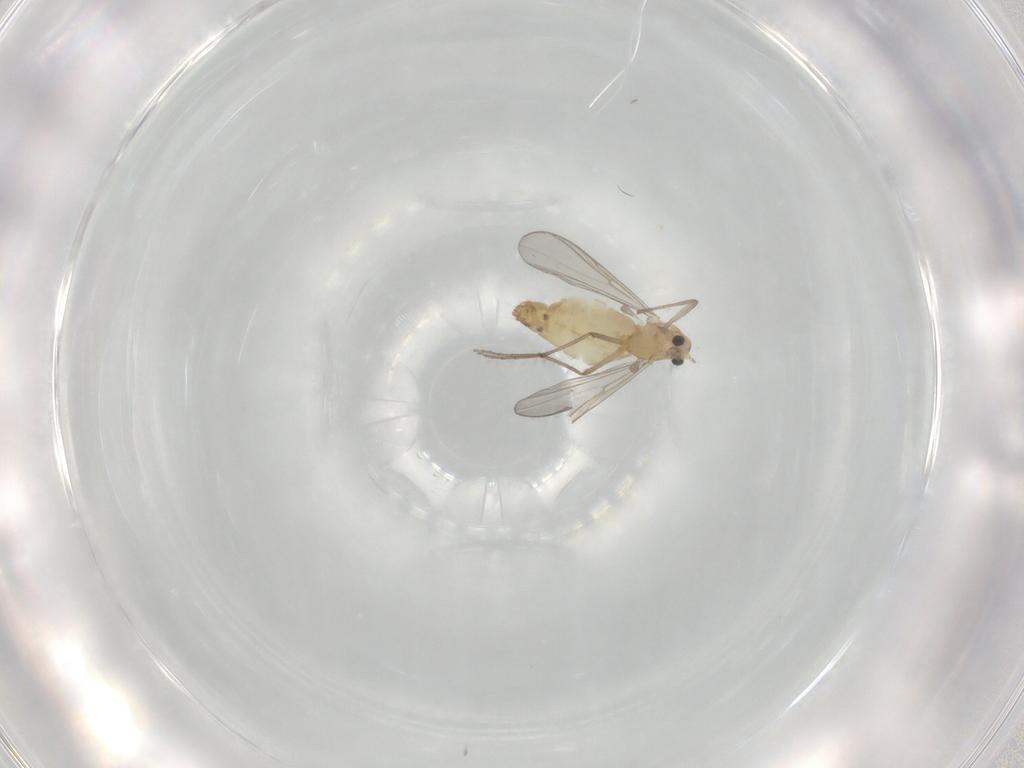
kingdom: Animalia
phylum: Arthropoda
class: Insecta
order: Diptera
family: Chironomidae
